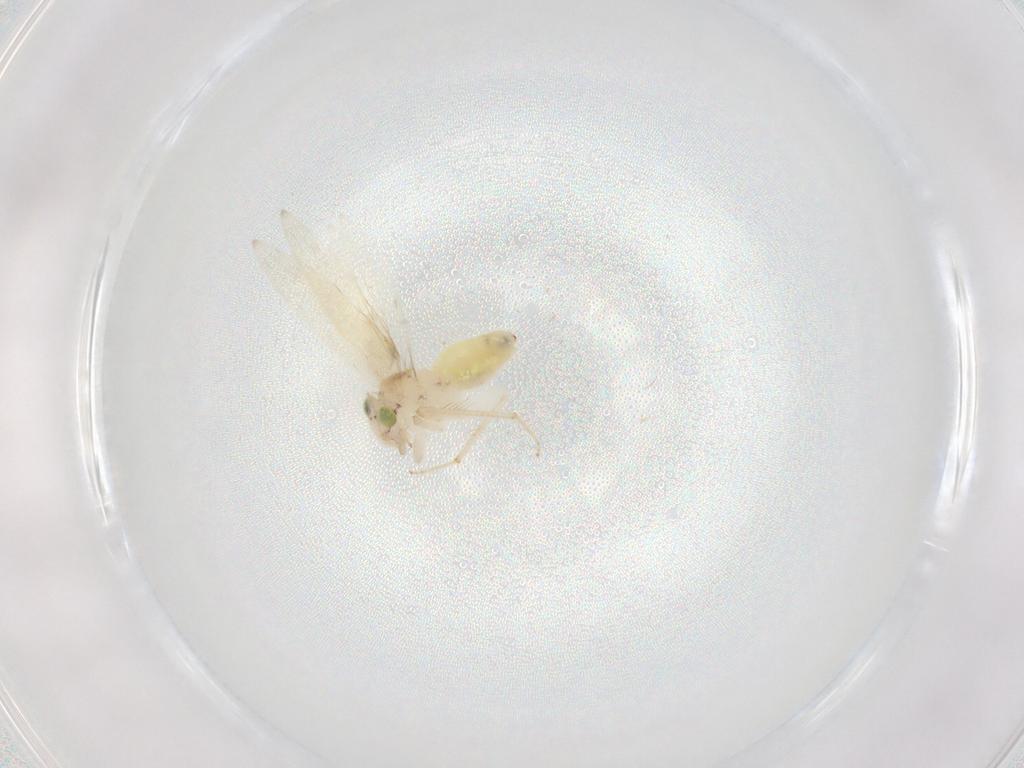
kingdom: Animalia
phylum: Arthropoda
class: Insecta
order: Psocodea
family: Lepidopsocidae
